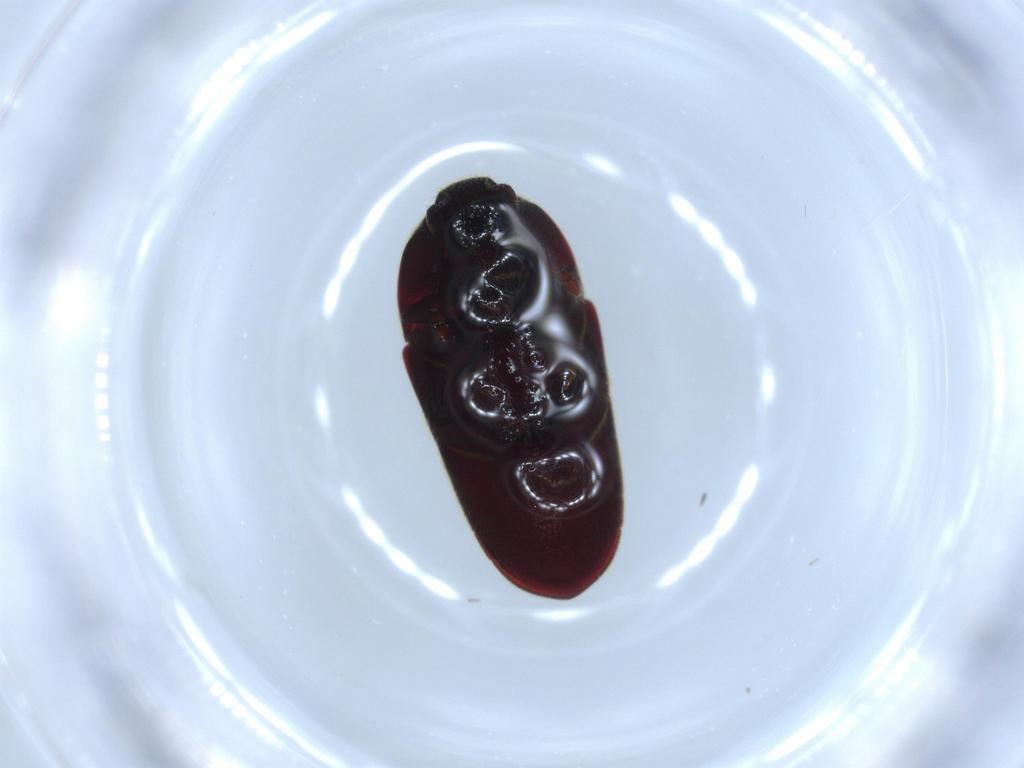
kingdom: Animalia
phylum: Arthropoda
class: Insecta
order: Coleoptera
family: Throscidae
